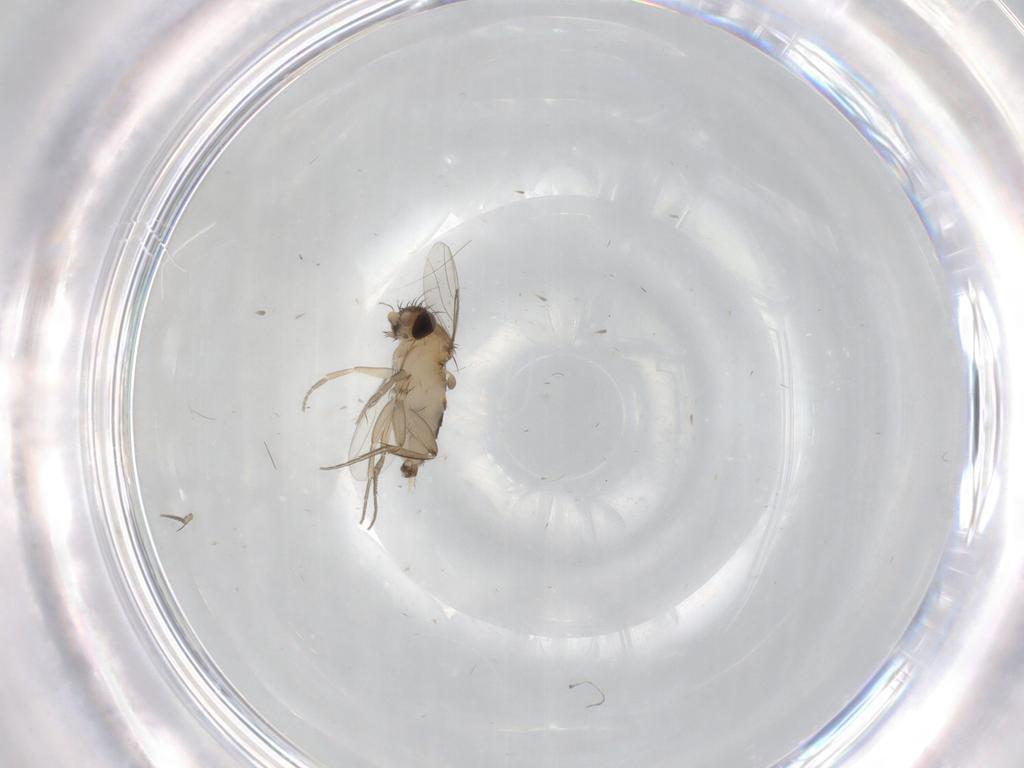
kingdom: Animalia
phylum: Arthropoda
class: Insecta
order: Diptera
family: Phoridae
